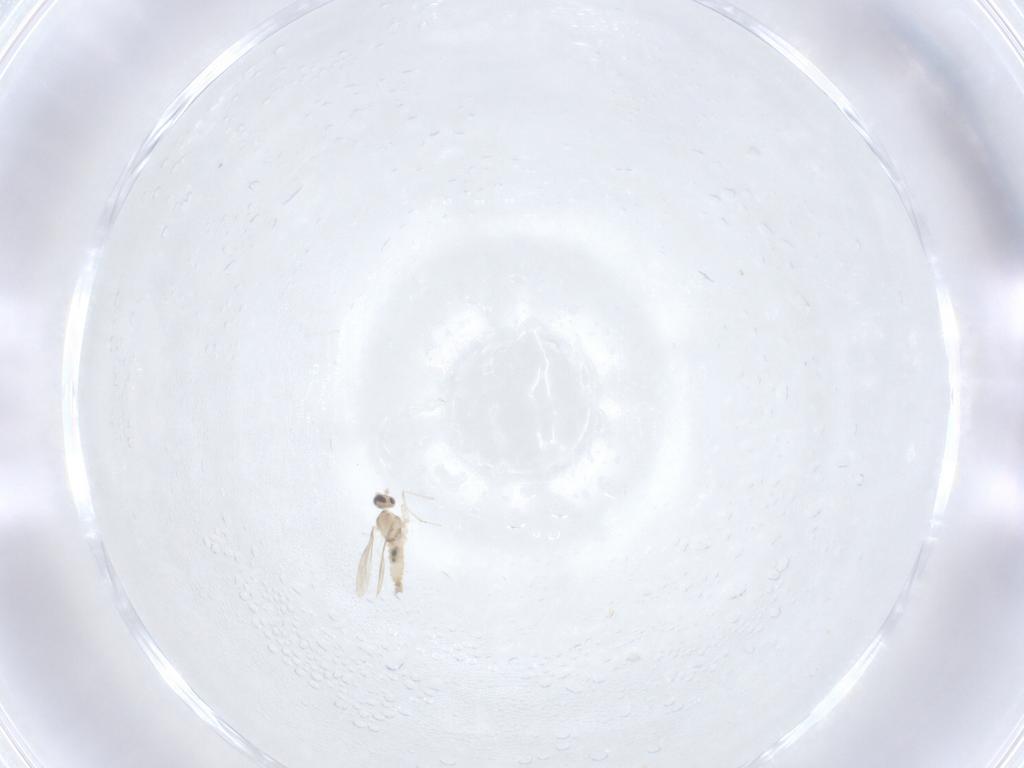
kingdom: Animalia
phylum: Arthropoda
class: Insecta
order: Diptera
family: Cecidomyiidae
